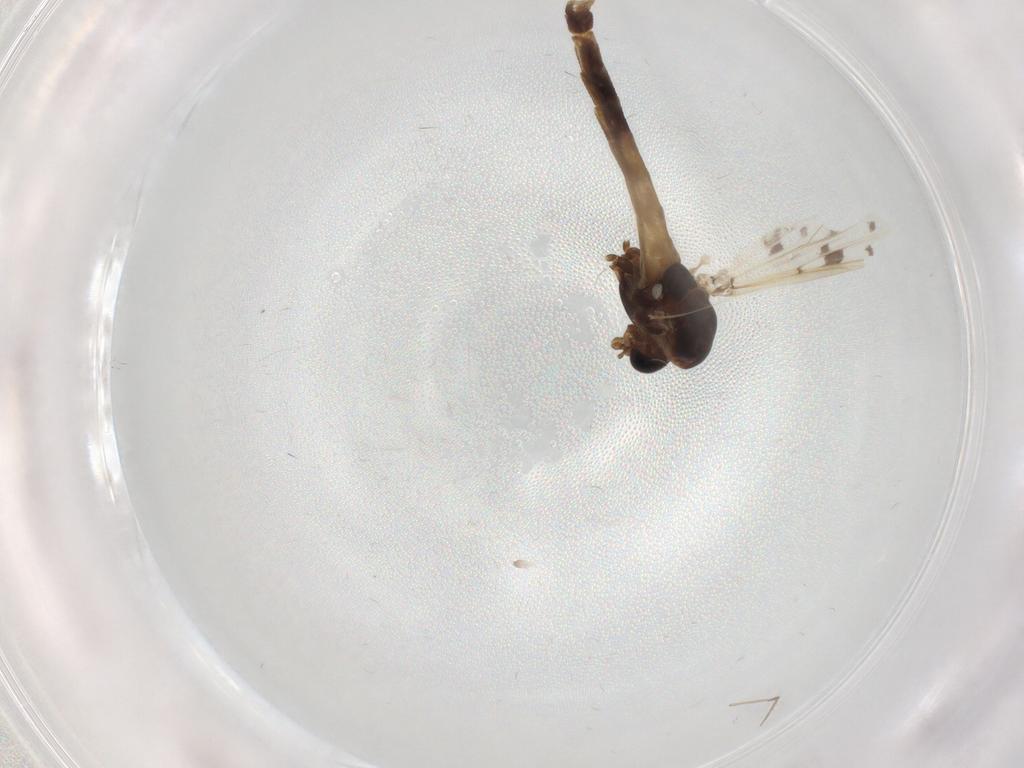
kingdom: Animalia
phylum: Arthropoda
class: Insecta
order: Diptera
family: Chironomidae
